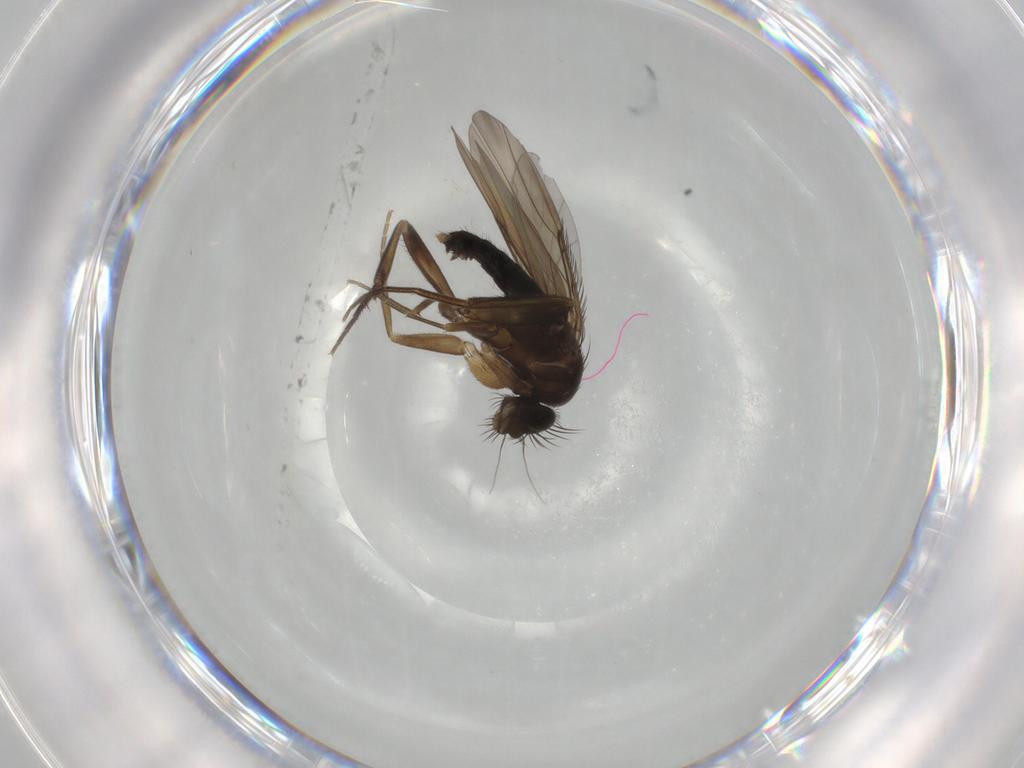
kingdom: Animalia
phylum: Arthropoda
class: Insecta
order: Diptera
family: Phoridae
